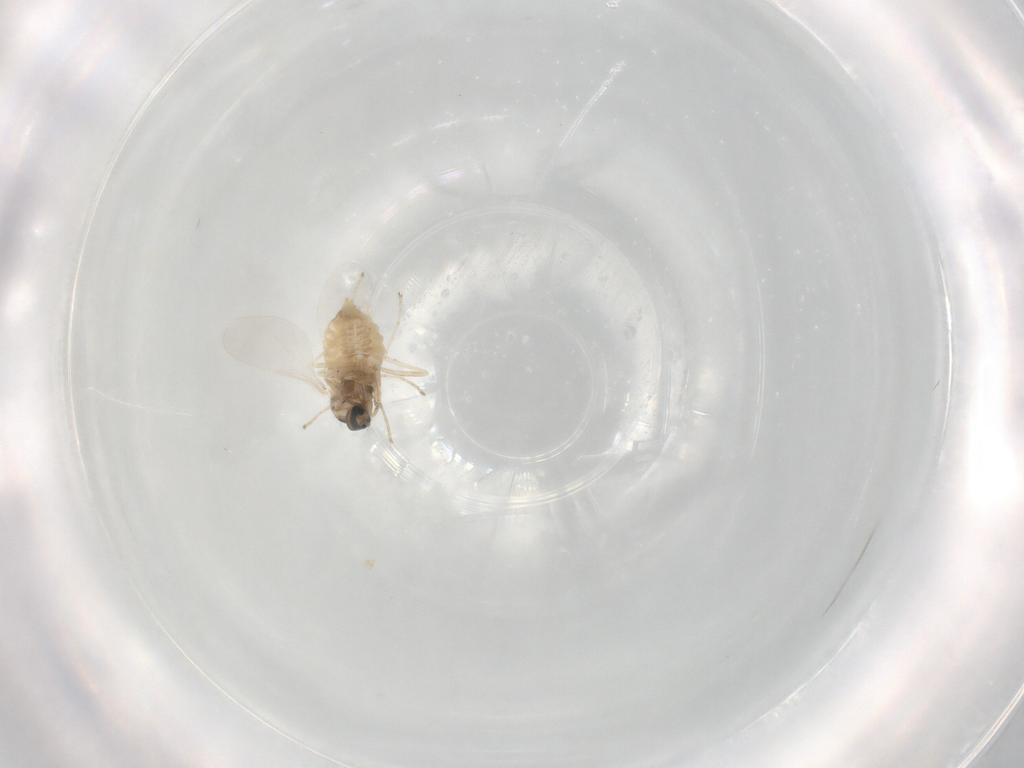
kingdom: Animalia
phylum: Arthropoda
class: Insecta
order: Diptera
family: Cecidomyiidae
